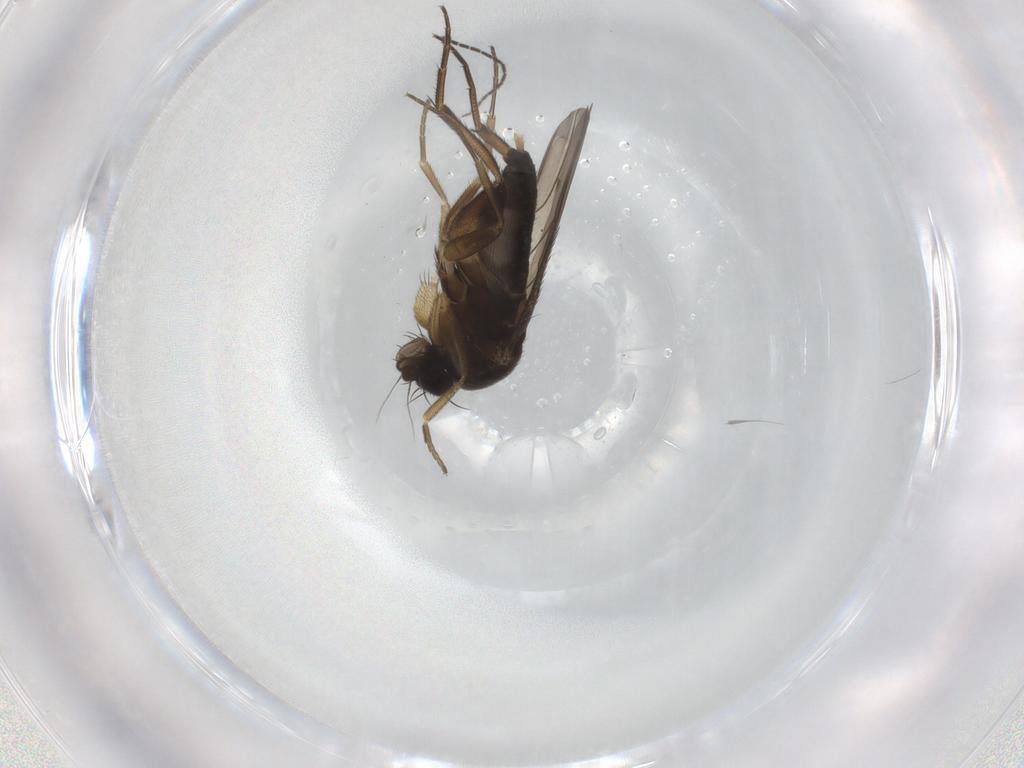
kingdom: Animalia
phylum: Arthropoda
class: Insecta
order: Diptera
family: Phoridae
